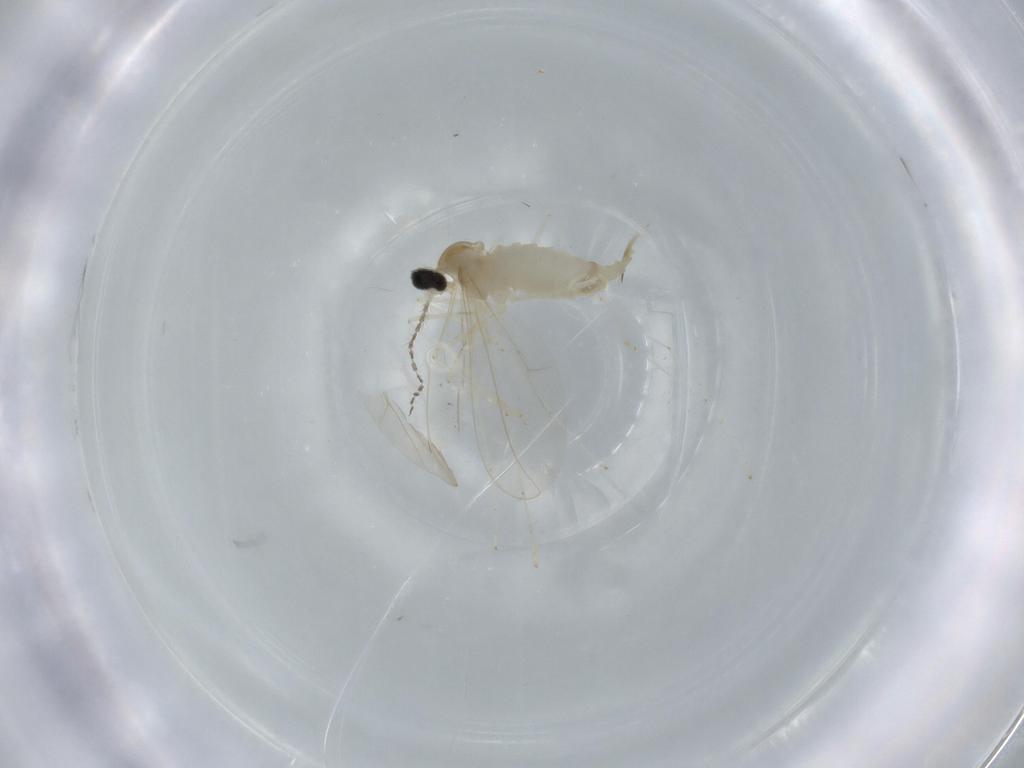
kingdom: Animalia
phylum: Arthropoda
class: Insecta
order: Diptera
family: Cecidomyiidae
